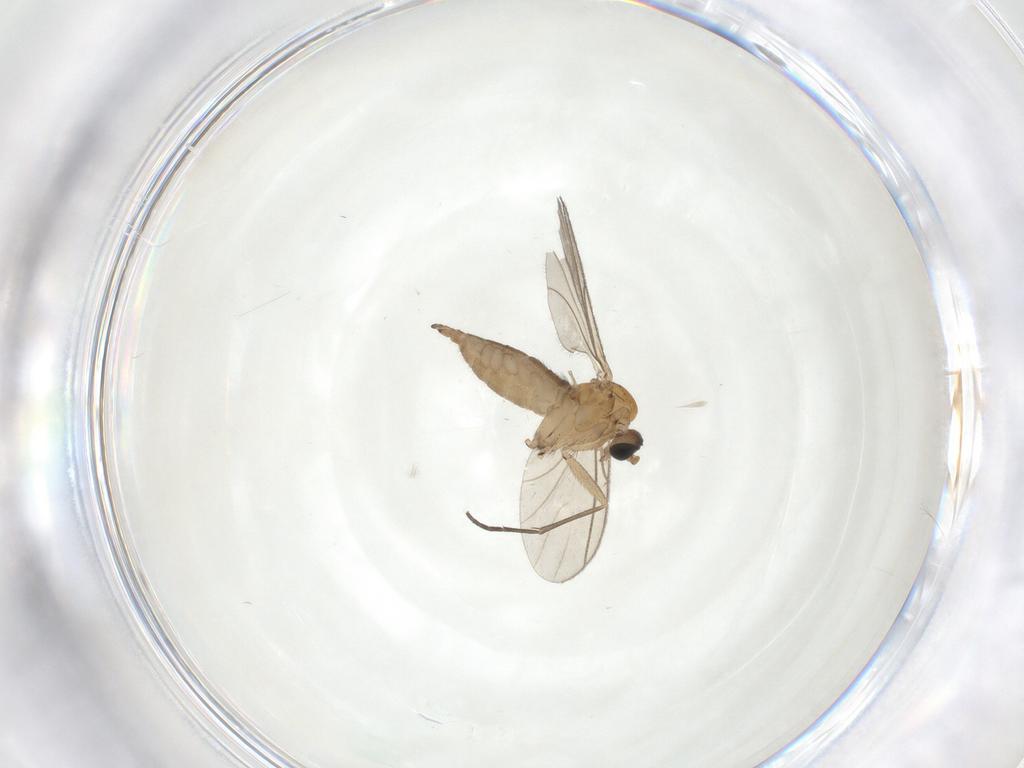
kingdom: Animalia
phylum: Arthropoda
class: Insecta
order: Diptera
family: Sciaridae
